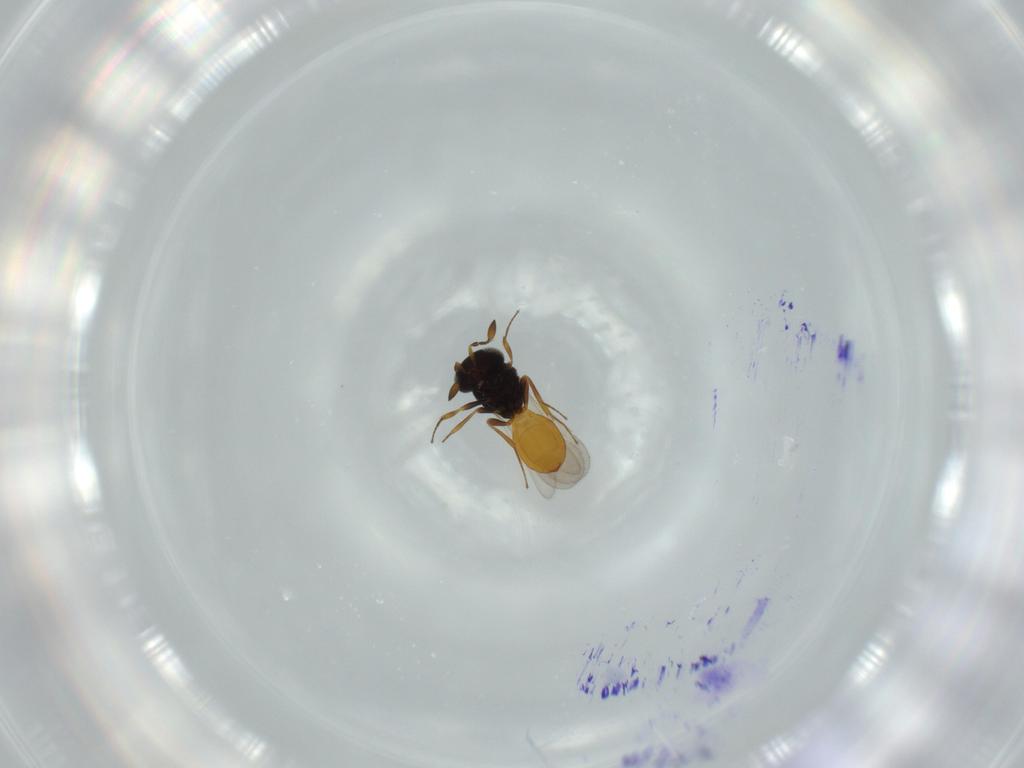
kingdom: Animalia
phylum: Arthropoda
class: Insecta
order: Hymenoptera
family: Scelionidae
